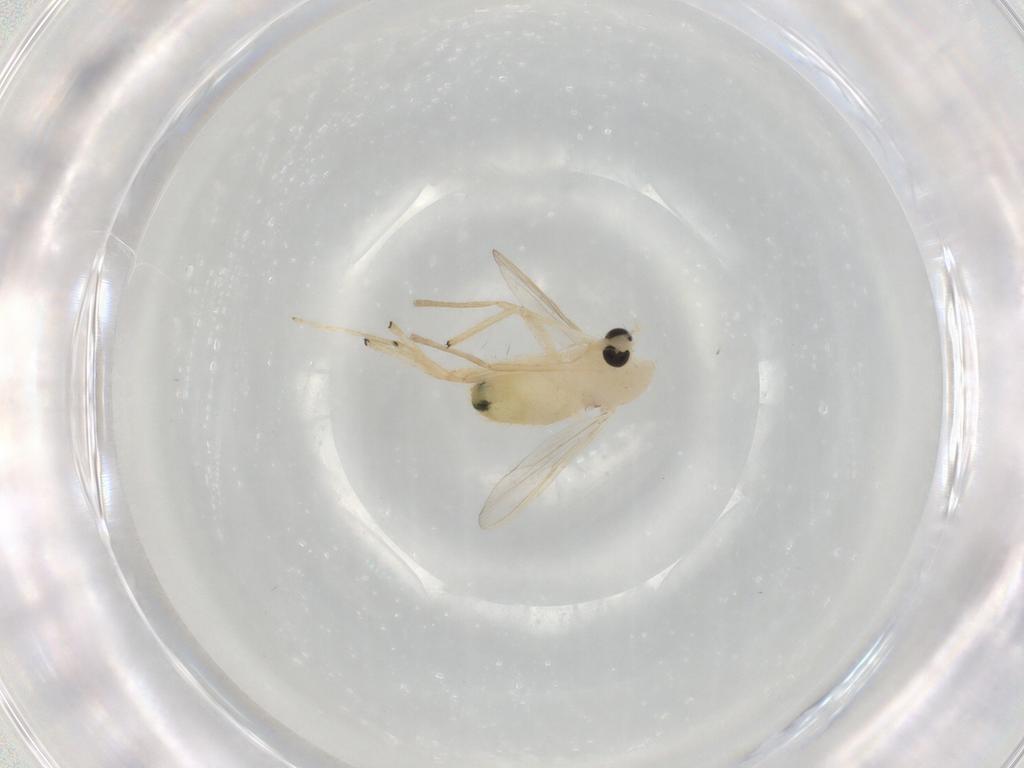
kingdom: Animalia
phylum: Arthropoda
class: Insecta
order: Diptera
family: Chironomidae
